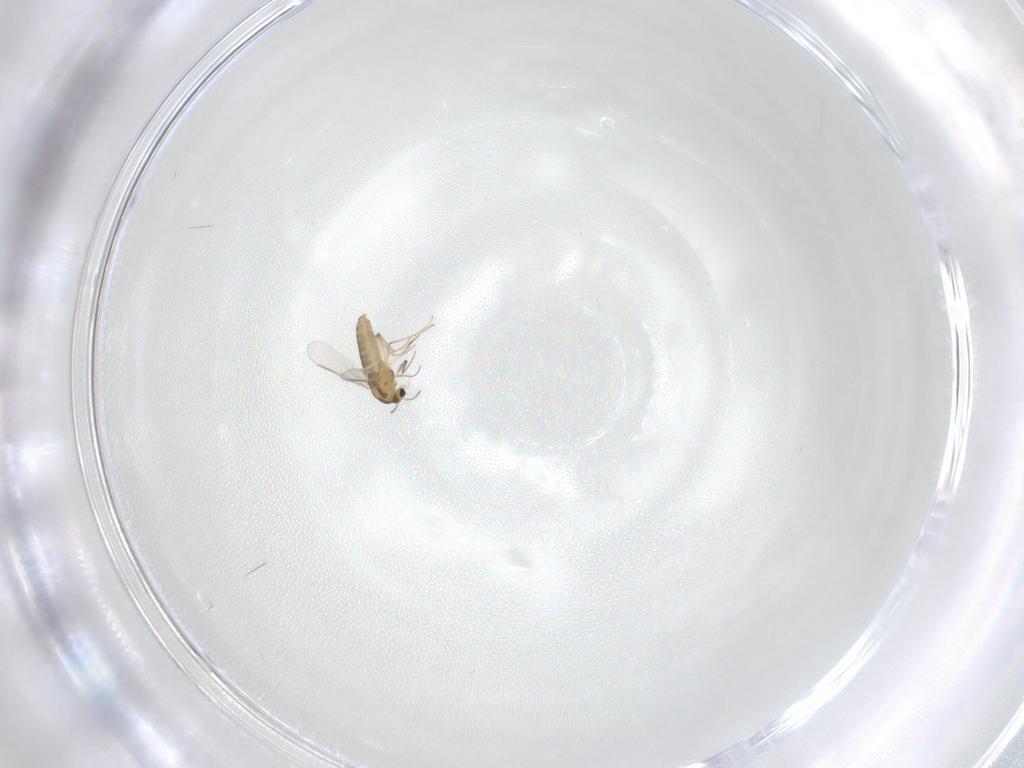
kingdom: Animalia
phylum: Arthropoda
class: Insecta
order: Diptera
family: Chironomidae
